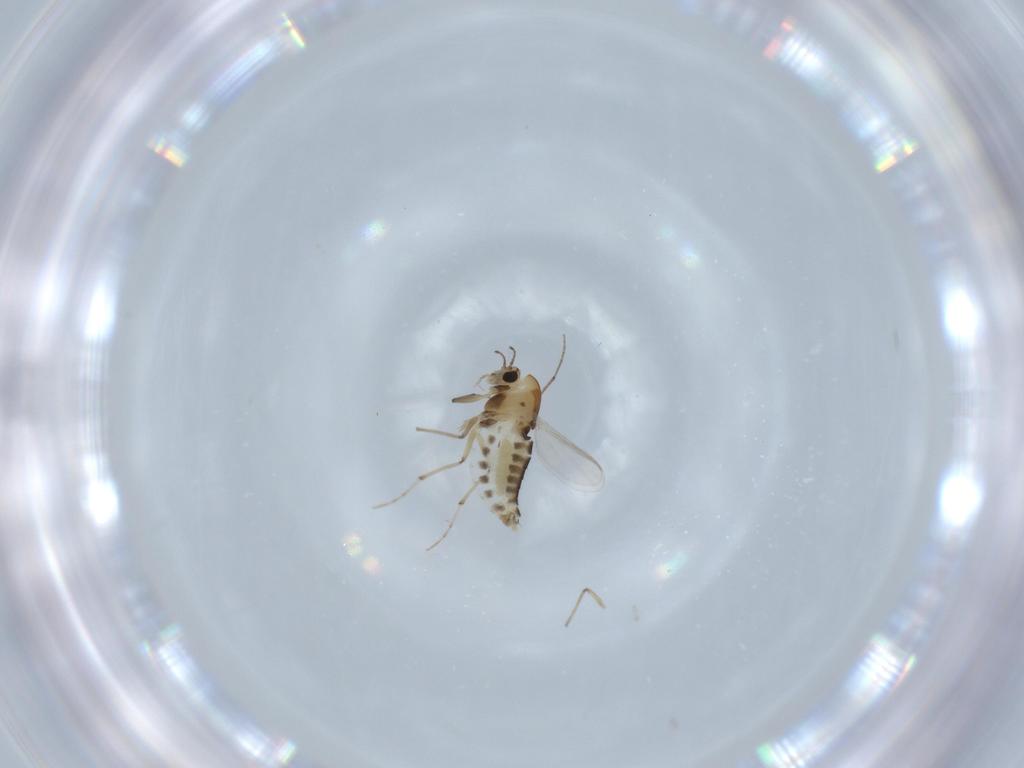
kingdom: Animalia
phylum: Arthropoda
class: Insecta
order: Diptera
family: Chironomidae
